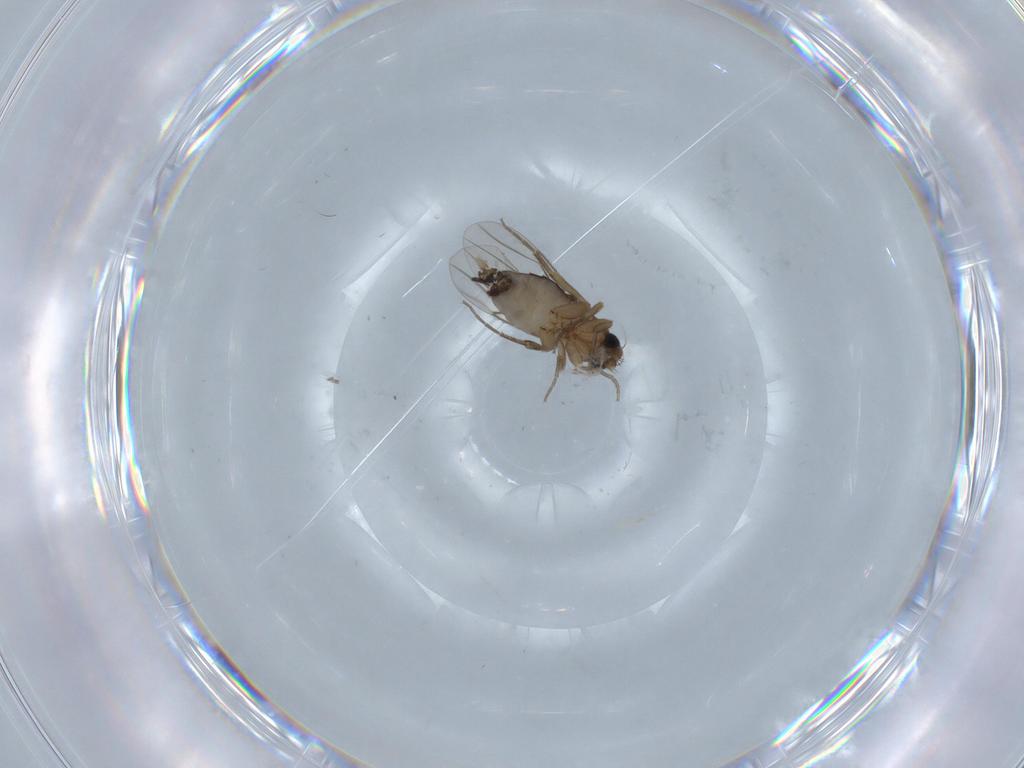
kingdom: Animalia
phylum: Arthropoda
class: Insecta
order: Diptera
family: Phoridae
